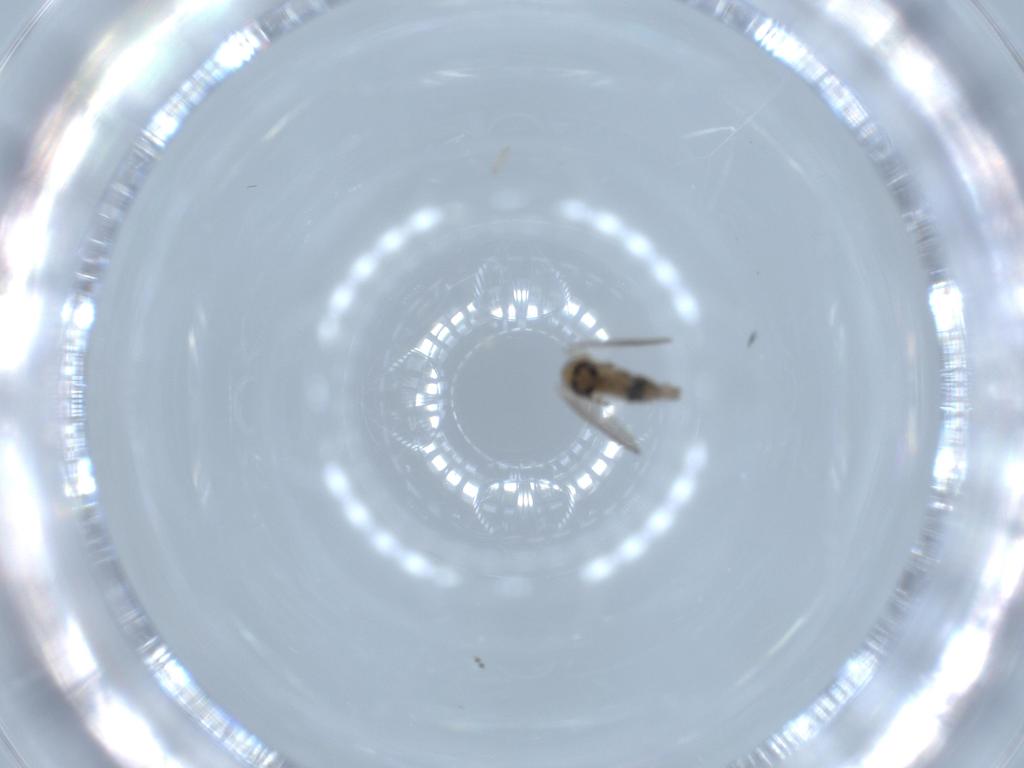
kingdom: Animalia
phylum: Arthropoda
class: Insecta
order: Diptera
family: Psychodidae
